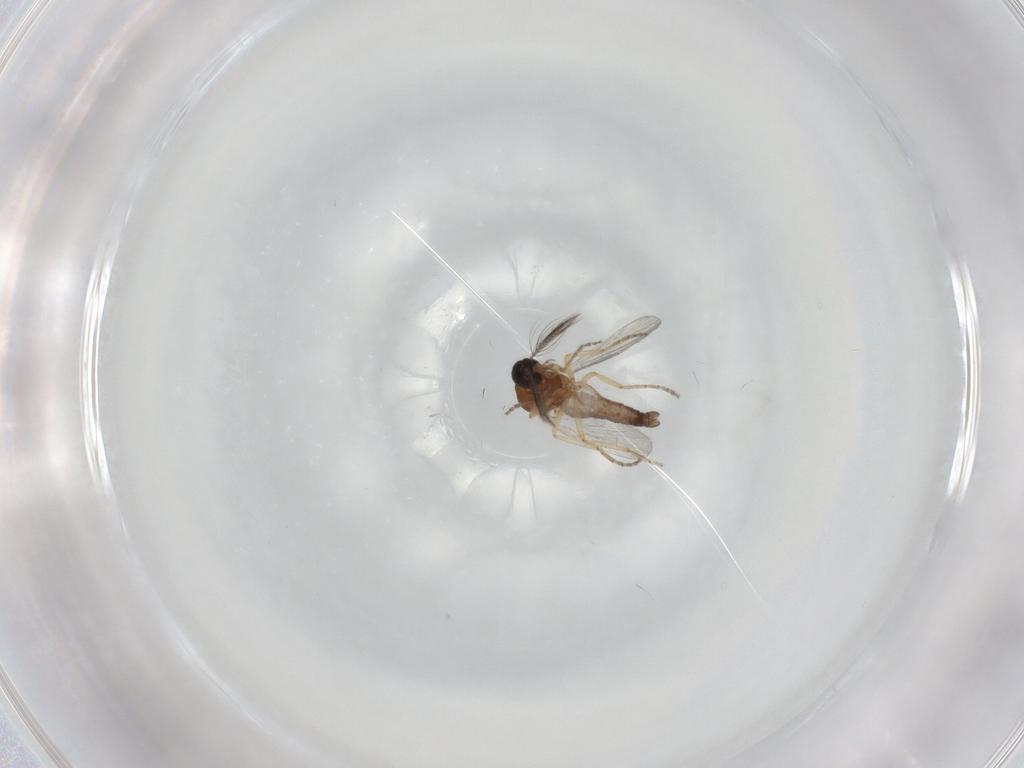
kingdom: Animalia
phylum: Arthropoda
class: Insecta
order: Diptera
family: Ceratopogonidae
